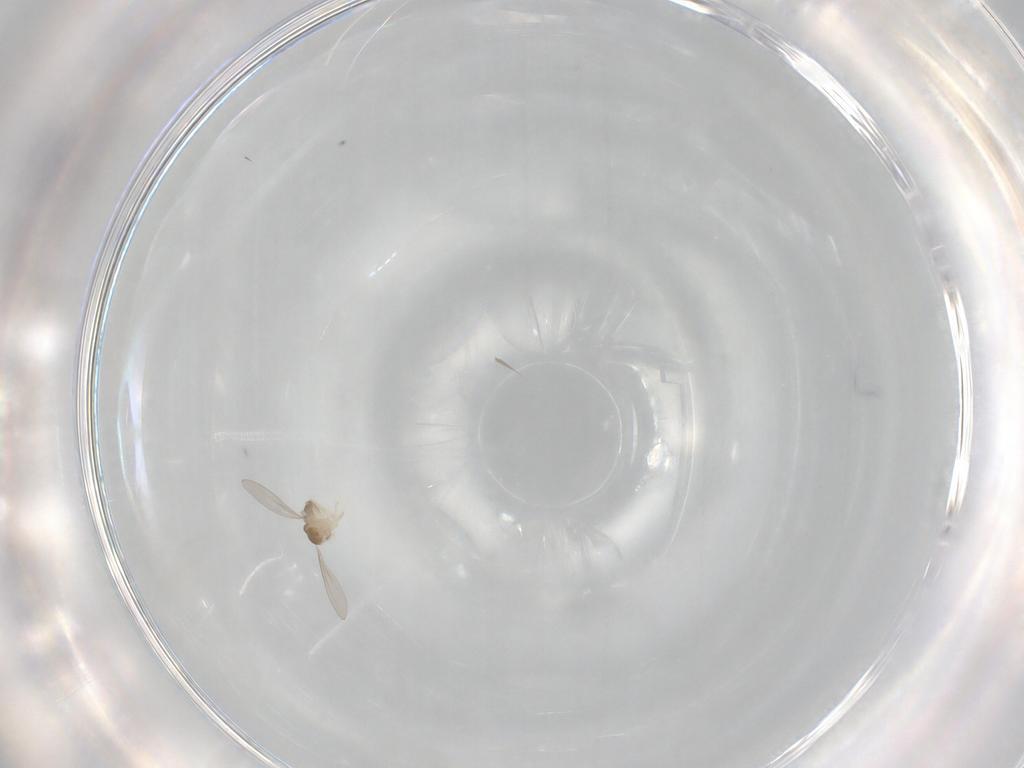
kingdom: Animalia
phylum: Arthropoda
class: Insecta
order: Diptera
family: Cecidomyiidae
